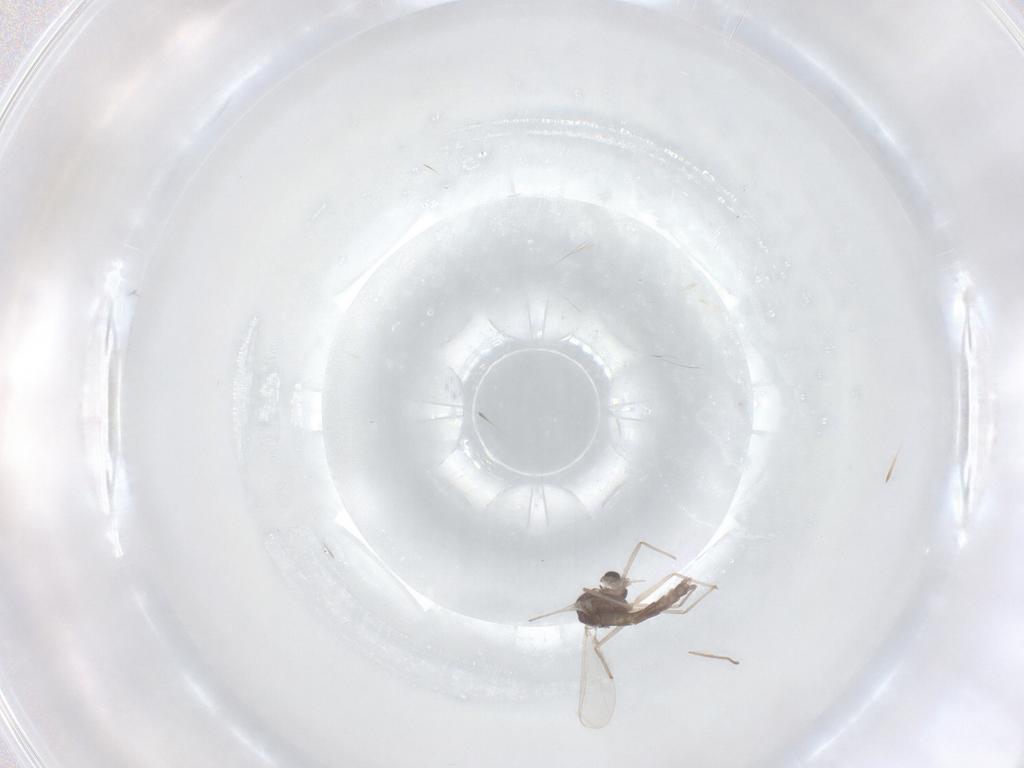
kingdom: Animalia
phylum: Arthropoda
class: Insecta
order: Diptera
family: Chironomidae
